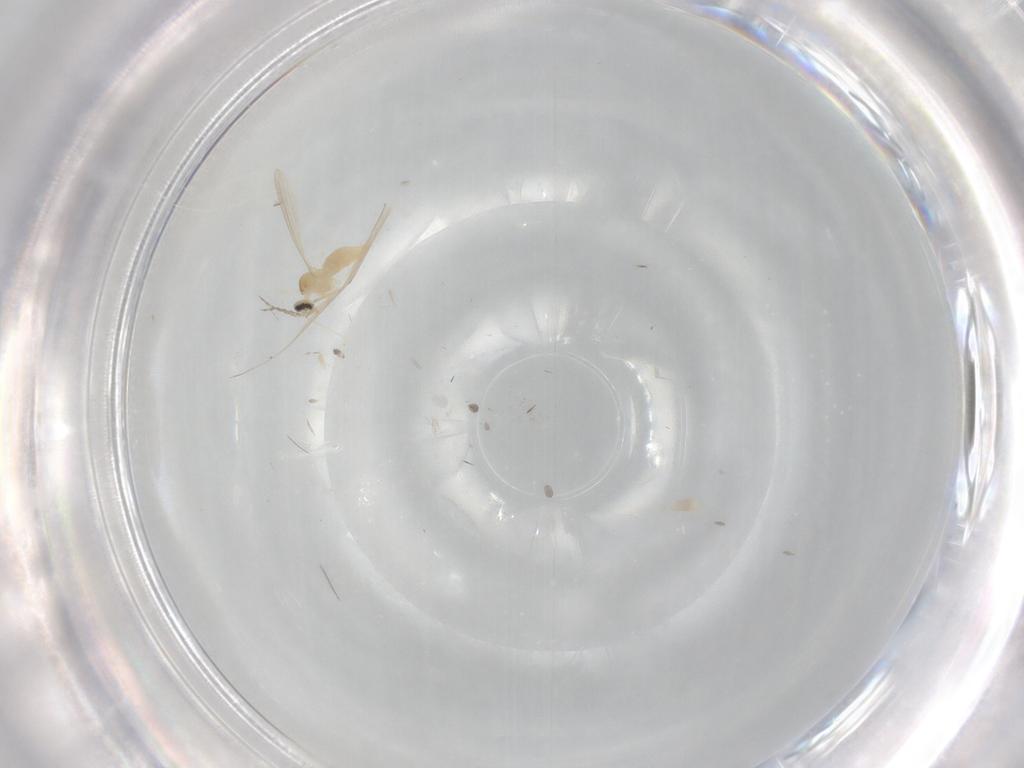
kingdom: Animalia
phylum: Arthropoda
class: Insecta
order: Diptera
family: Cecidomyiidae
